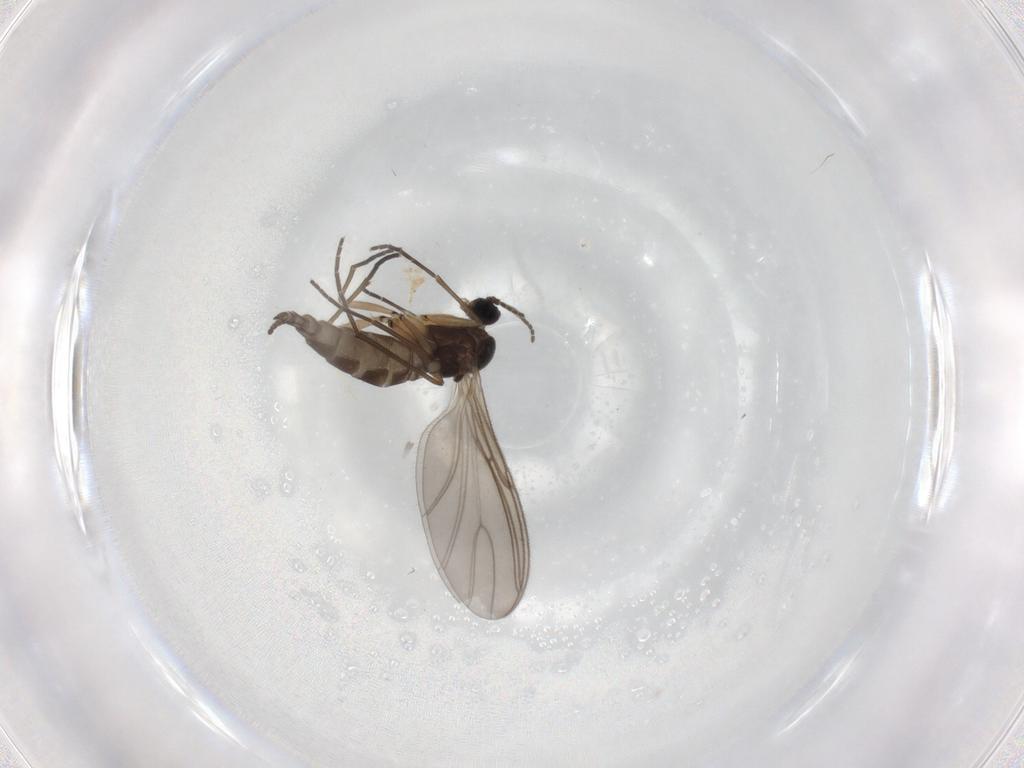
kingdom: Animalia
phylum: Arthropoda
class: Insecta
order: Diptera
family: Sciaridae
